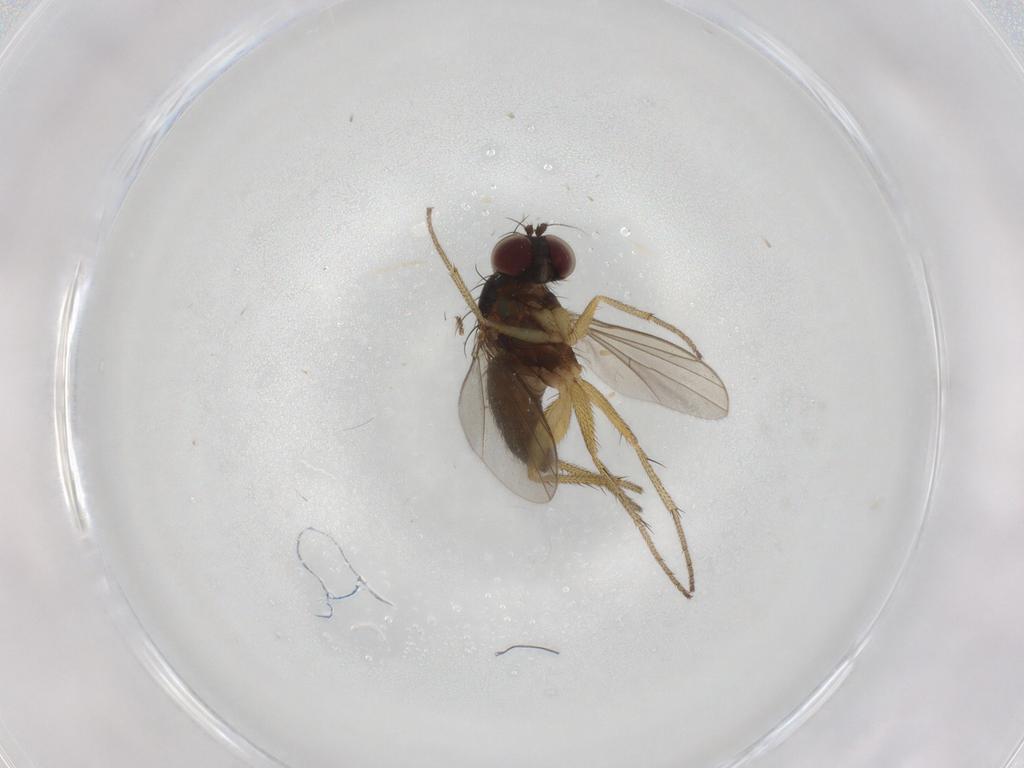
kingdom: Animalia
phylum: Arthropoda
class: Insecta
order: Diptera
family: Dolichopodidae
